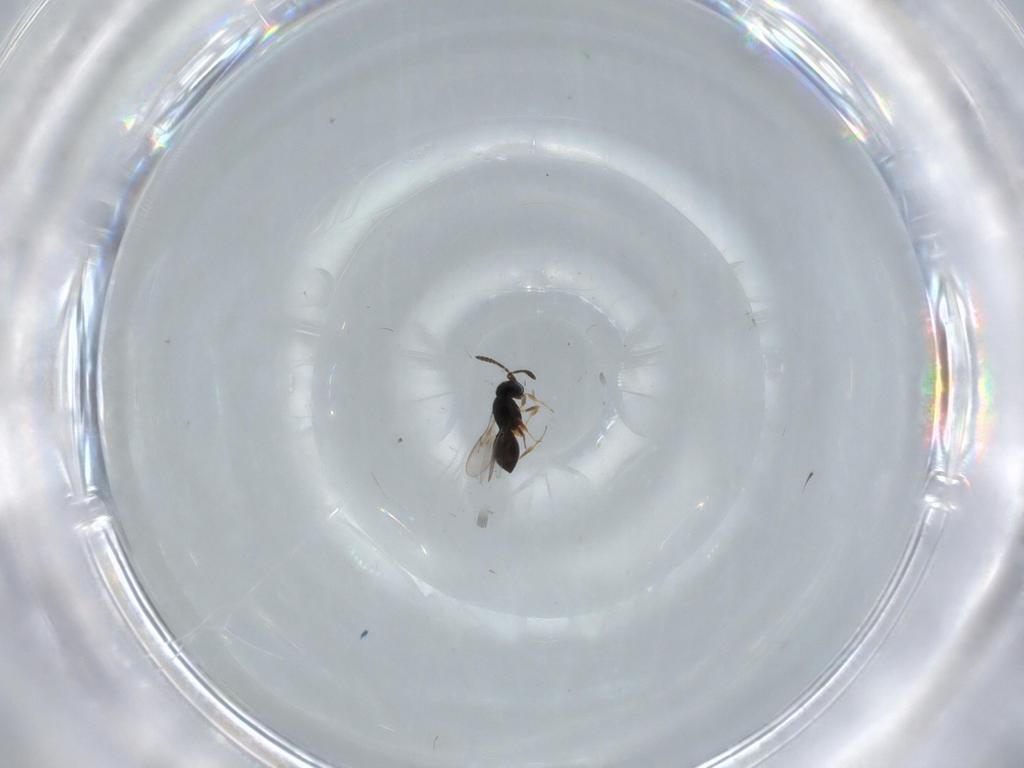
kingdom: Animalia
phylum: Arthropoda
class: Insecta
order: Hymenoptera
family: Scelionidae
